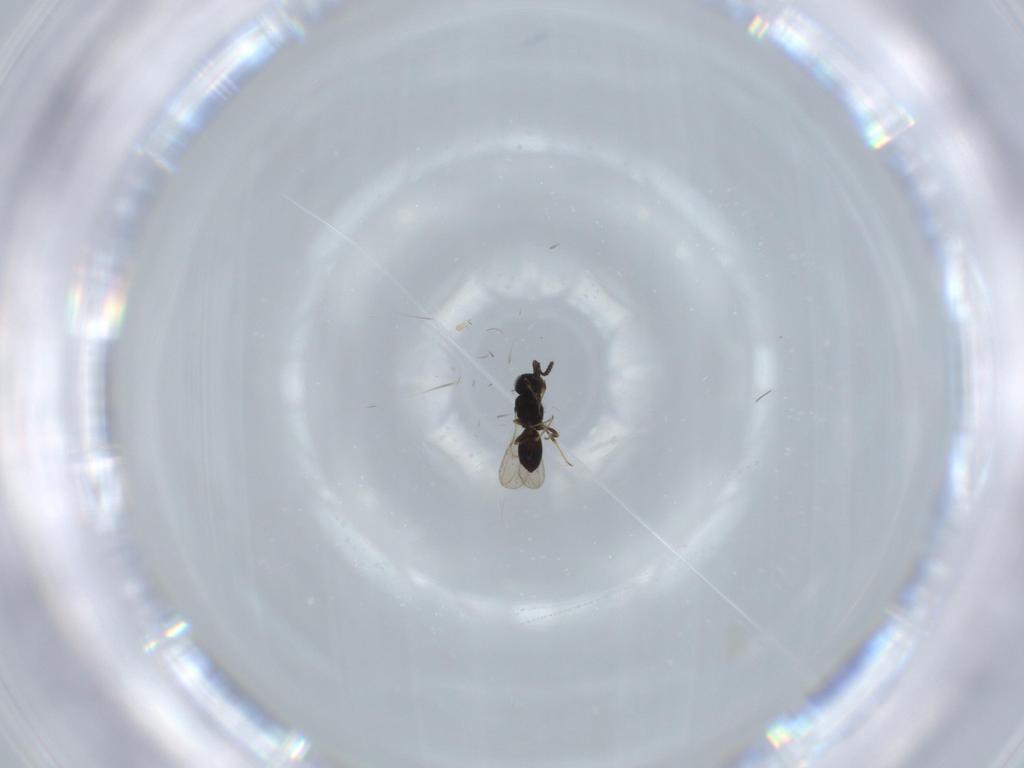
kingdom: Animalia
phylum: Arthropoda
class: Insecta
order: Hymenoptera
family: Scelionidae
